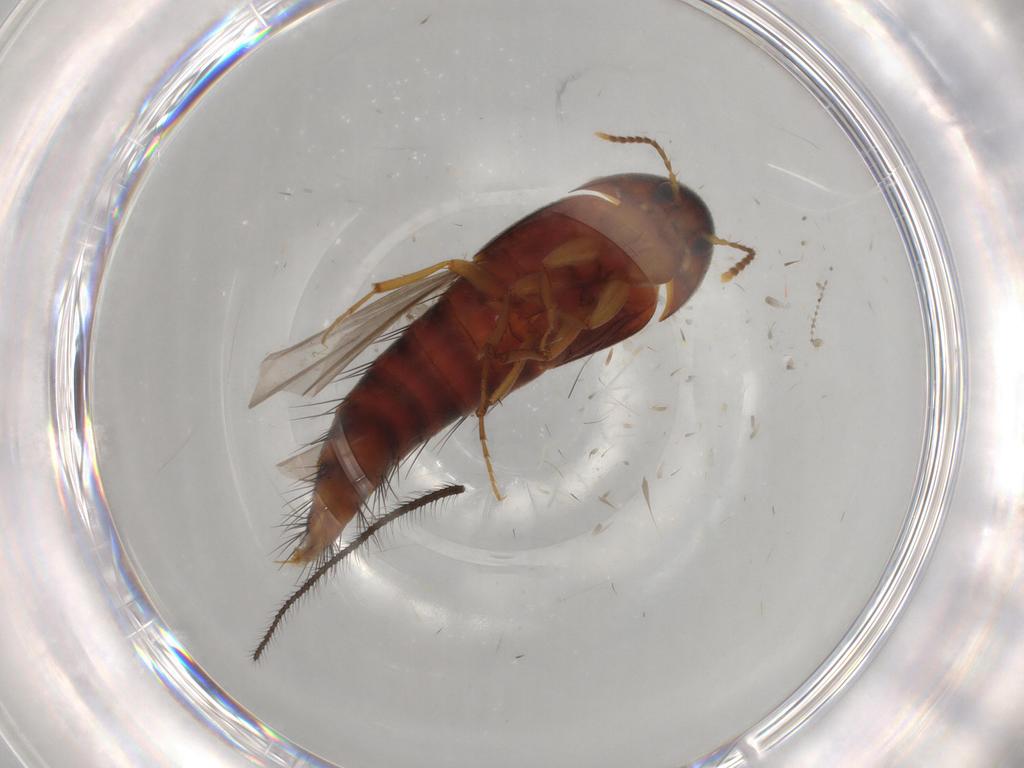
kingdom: Animalia
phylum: Arthropoda
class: Insecta
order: Coleoptera
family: Staphylinidae
